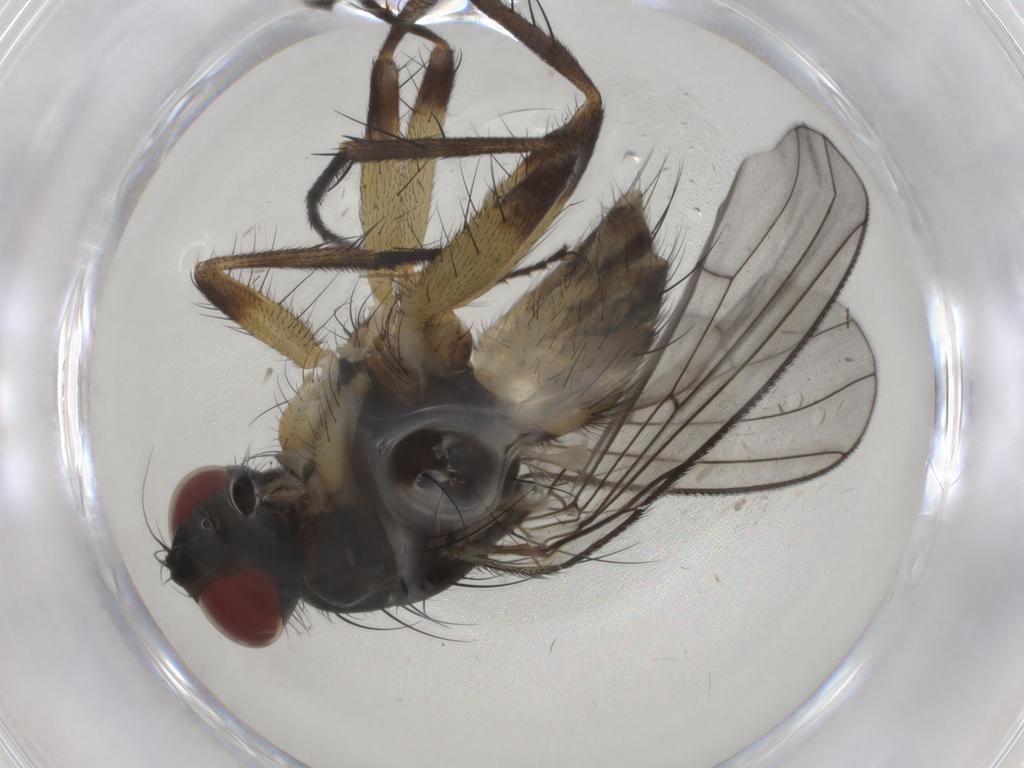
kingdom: Animalia
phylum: Arthropoda
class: Insecta
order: Diptera
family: Muscidae
